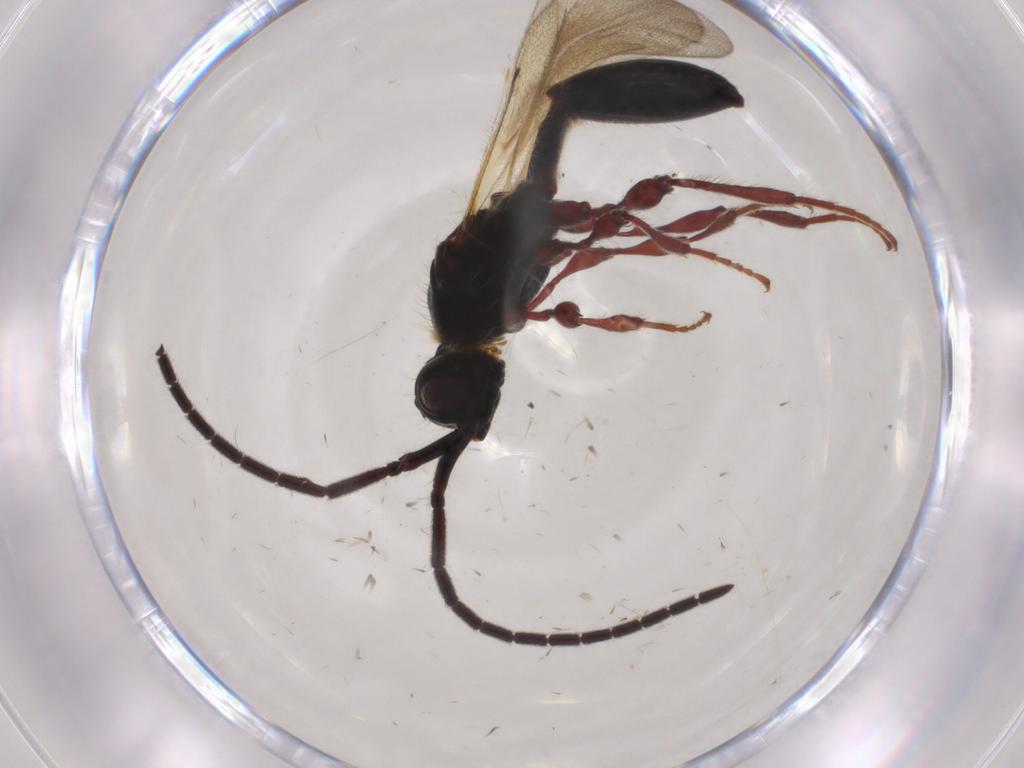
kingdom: Animalia
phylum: Arthropoda
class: Insecta
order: Hymenoptera
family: Diapriidae
